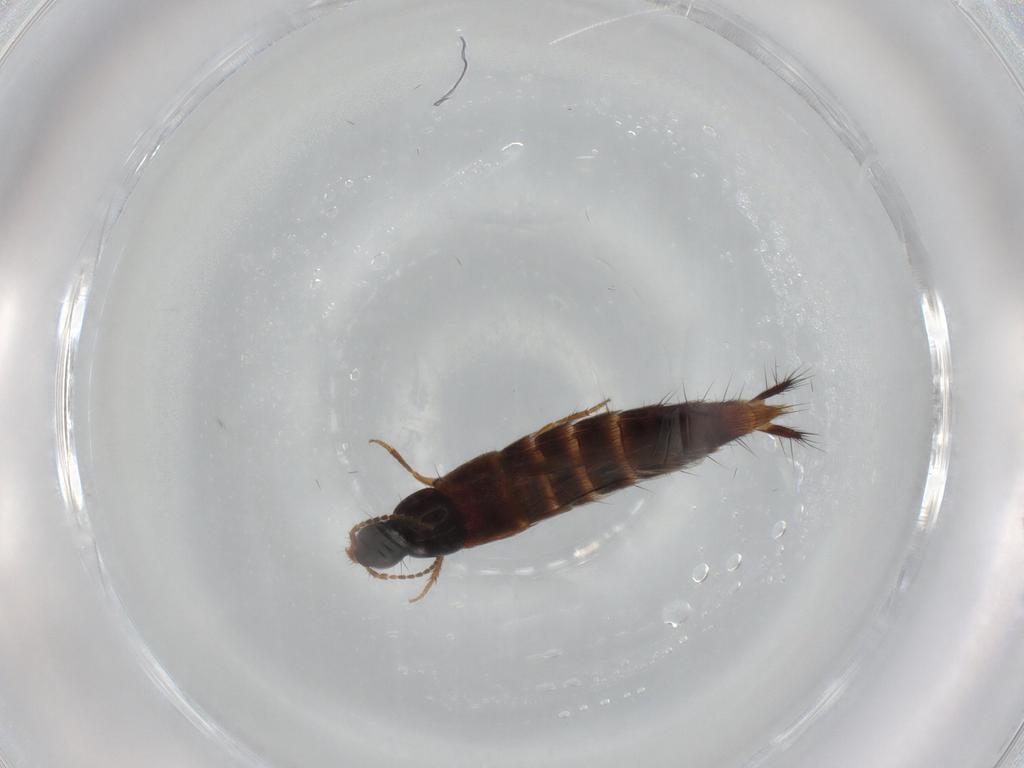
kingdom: Animalia
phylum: Arthropoda
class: Insecta
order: Coleoptera
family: Staphylinidae
